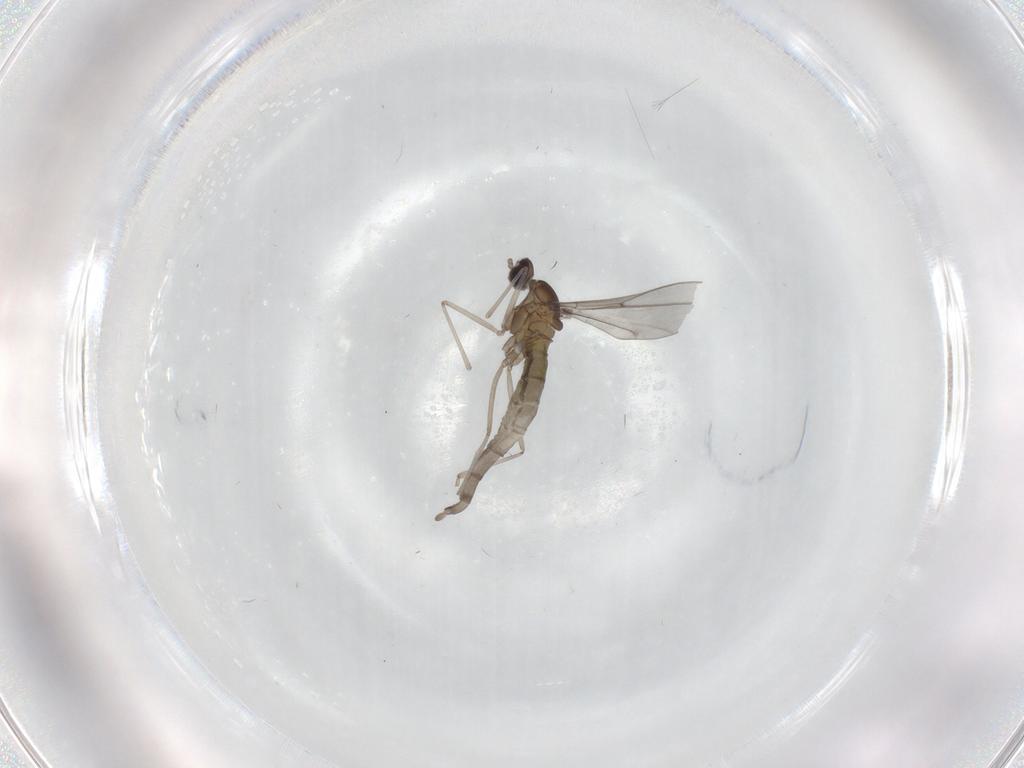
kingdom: Animalia
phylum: Arthropoda
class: Insecta
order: Diptera
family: Cecidomyiidae
